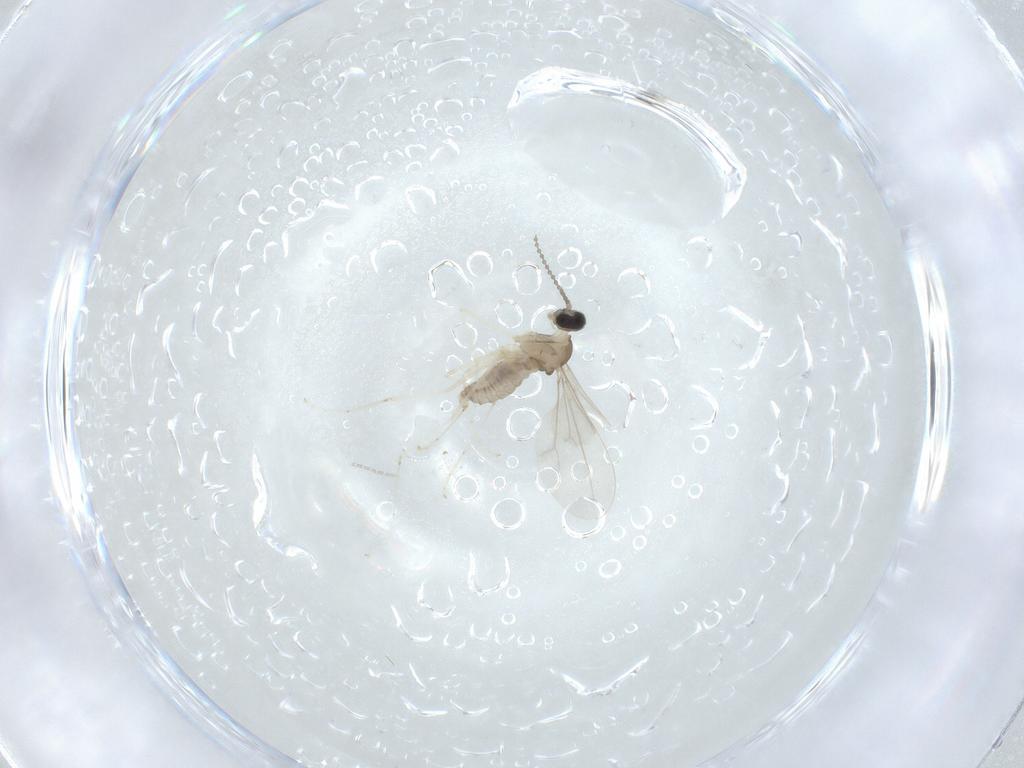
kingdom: Animalia
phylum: Arthropoda
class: Insecta
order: Diptera
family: Cecidomyiidae
